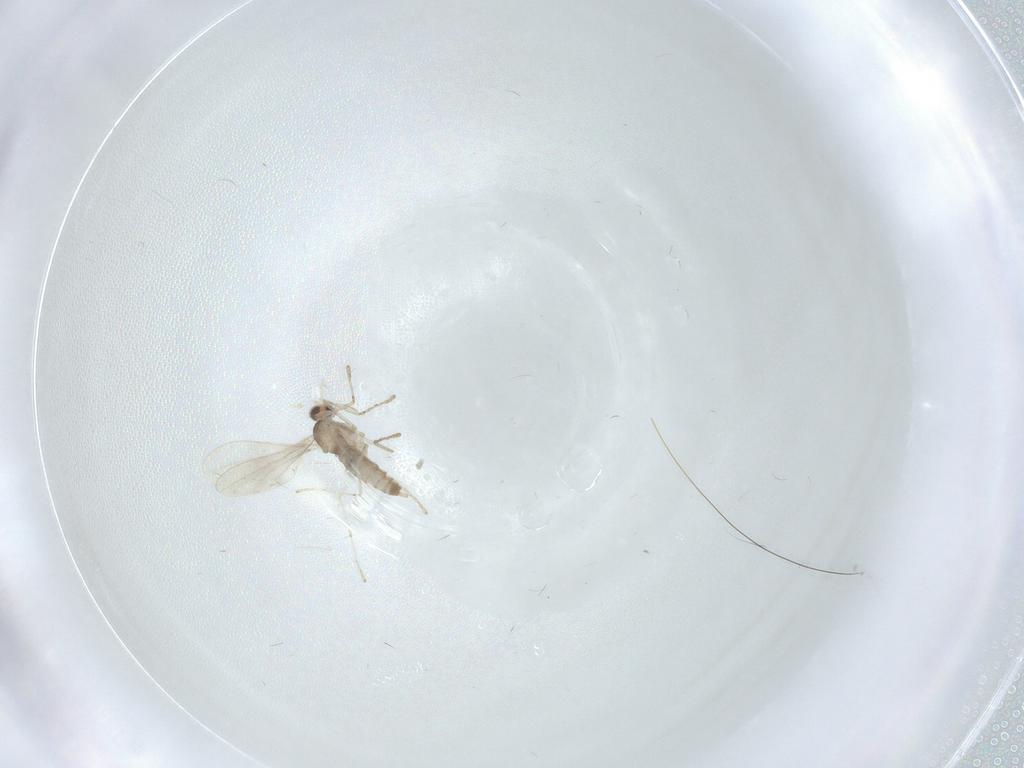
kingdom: Animalia
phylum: Arthropoda
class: Insecta
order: Diptera
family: Cecidomyiidae
